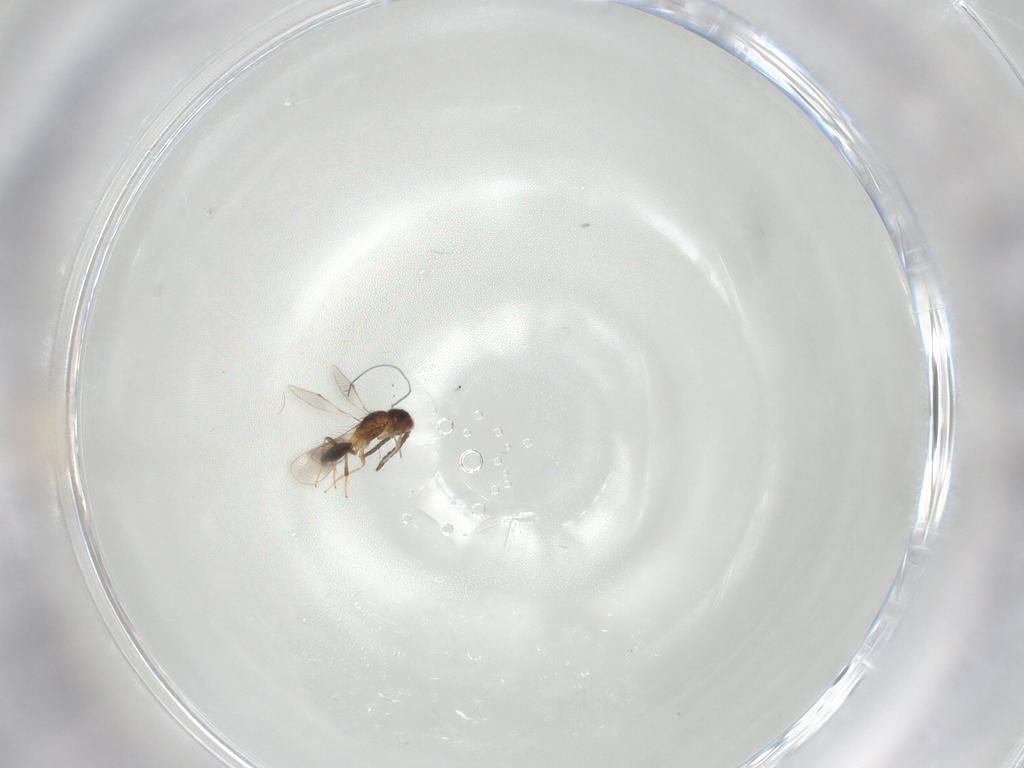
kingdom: Animalia
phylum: Arthropoda
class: Insecta
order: Hymenoptera
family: Pteromalidae
